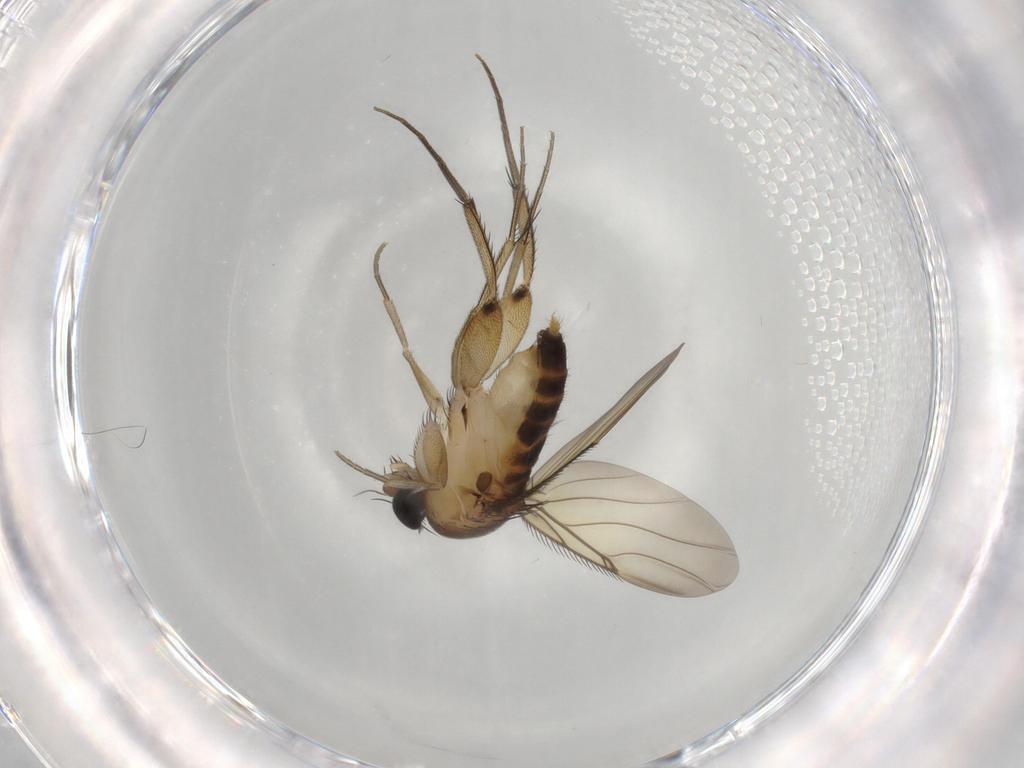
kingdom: Animalia
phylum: Arthropoda
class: Insecta
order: Diptera
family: Phoridae
